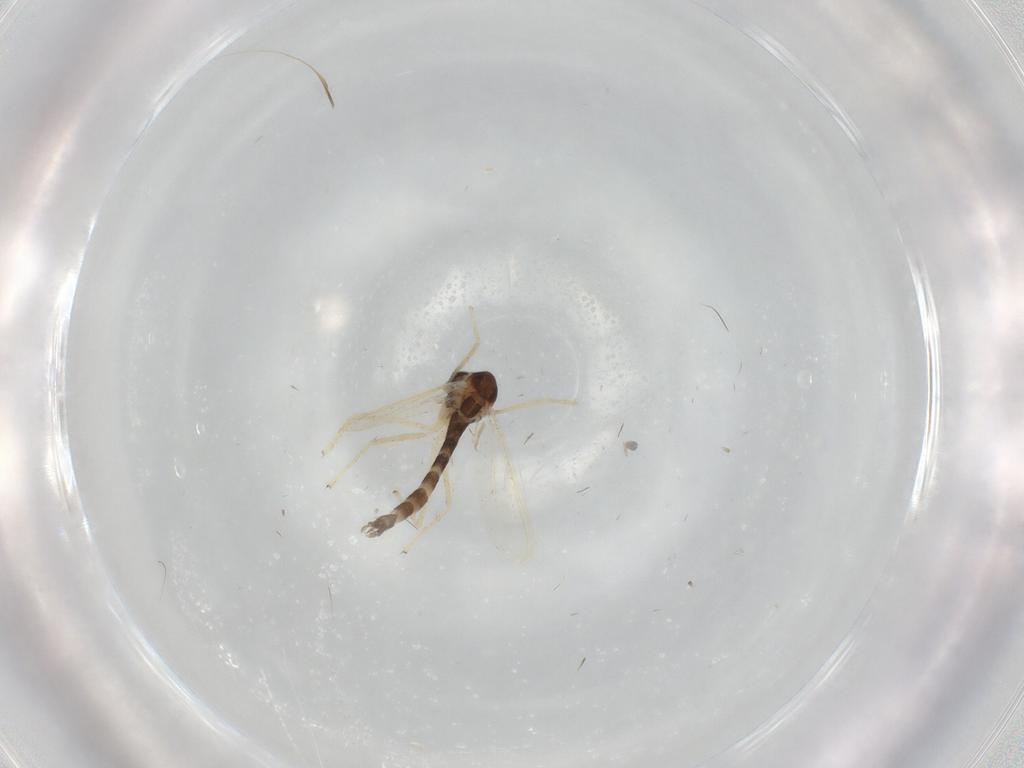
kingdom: Animalia
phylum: Arthropoda
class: Insecta
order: Diptera
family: Chironomidae
